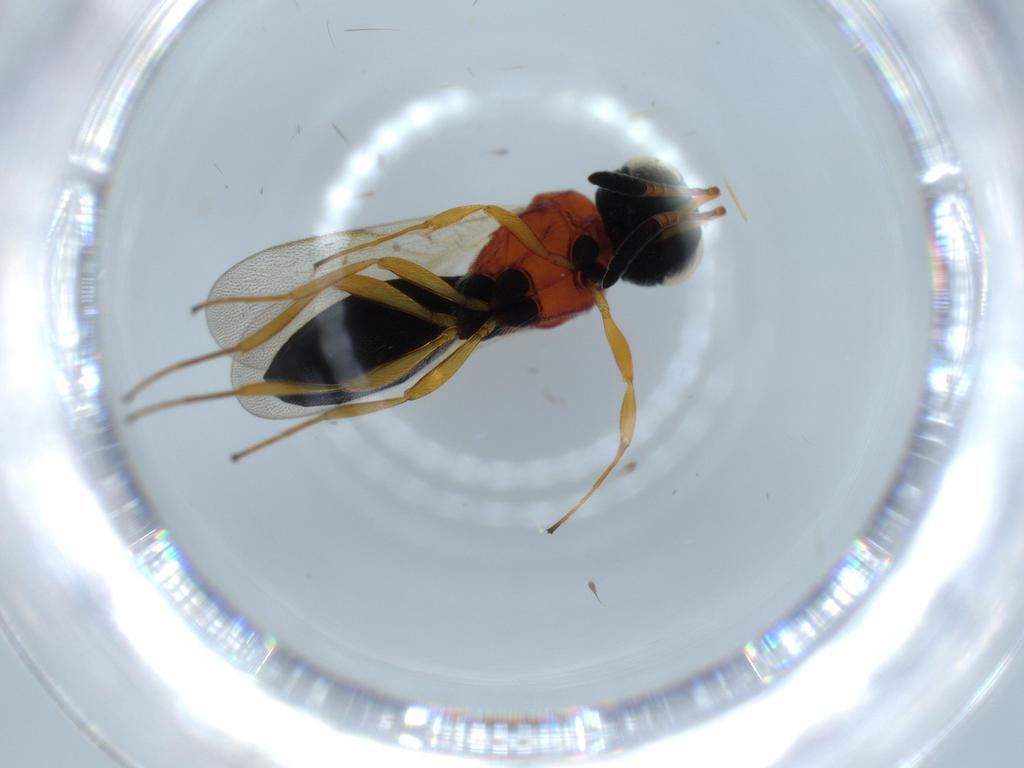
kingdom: Animalia
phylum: Arthropoda
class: Insecta
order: Hymenoptera
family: Scelionidae
